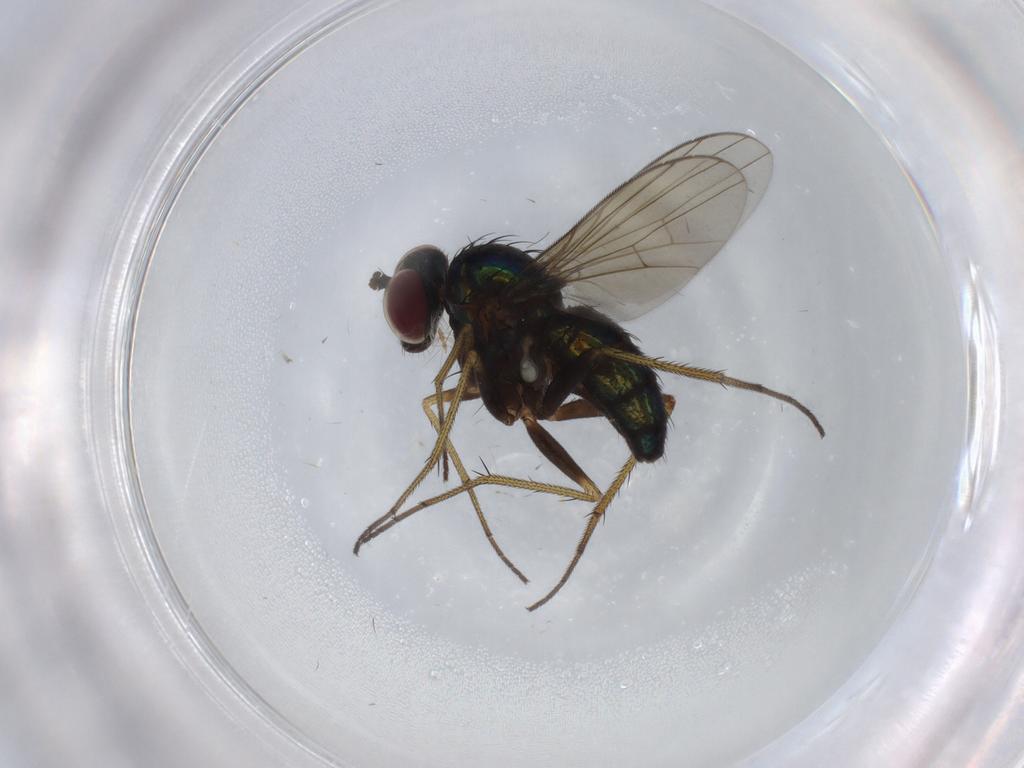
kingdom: Animalia
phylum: Arthropoda
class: Insecta
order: Diptera
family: Dolichopodidae
